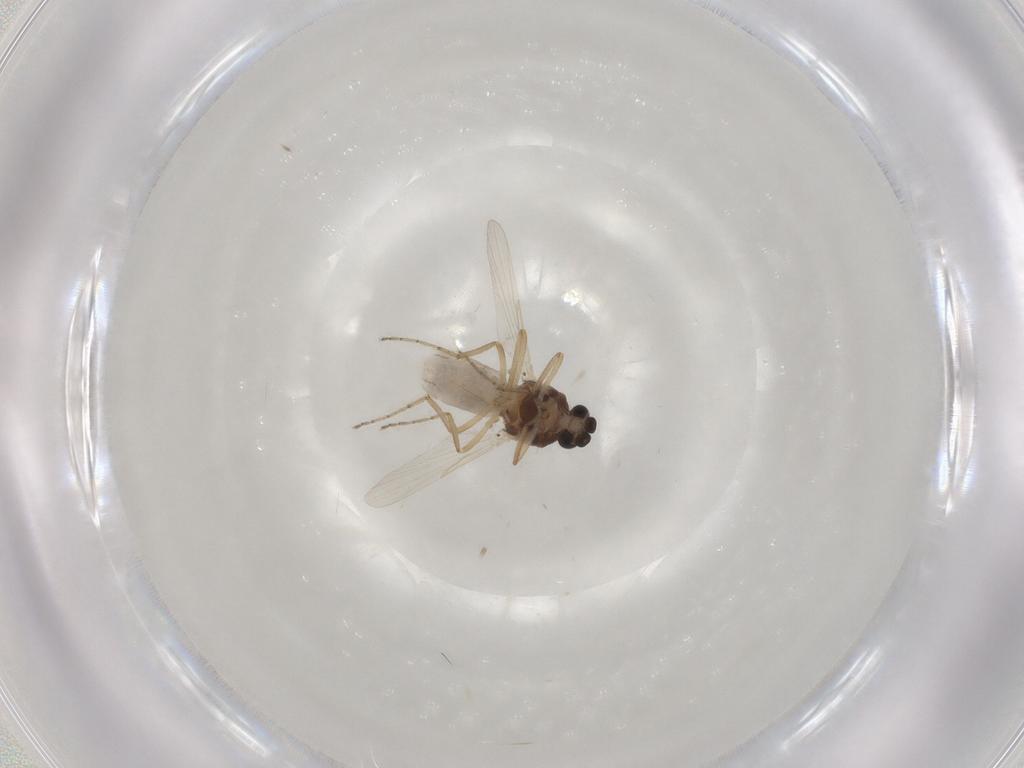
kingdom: Animalia
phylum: Arthropoda
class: Insecta
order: Diptera
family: Ceratopogonidae
